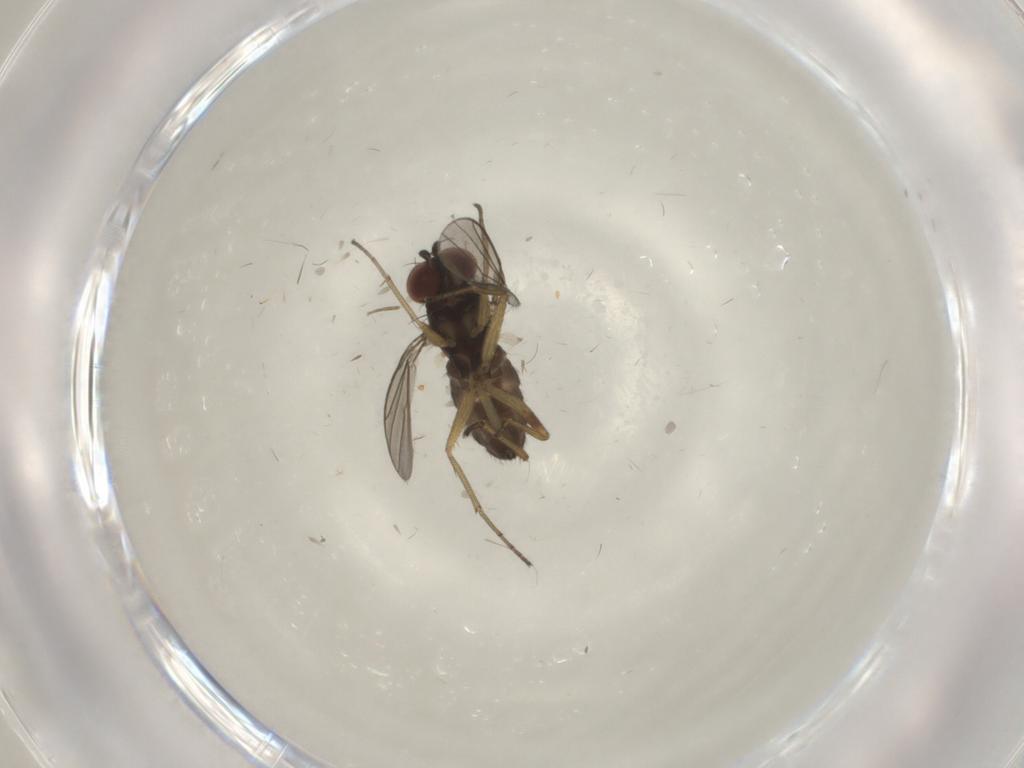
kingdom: Animalia
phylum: Arthropoda
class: Insecta
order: Diptera
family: Dolichopodidae
